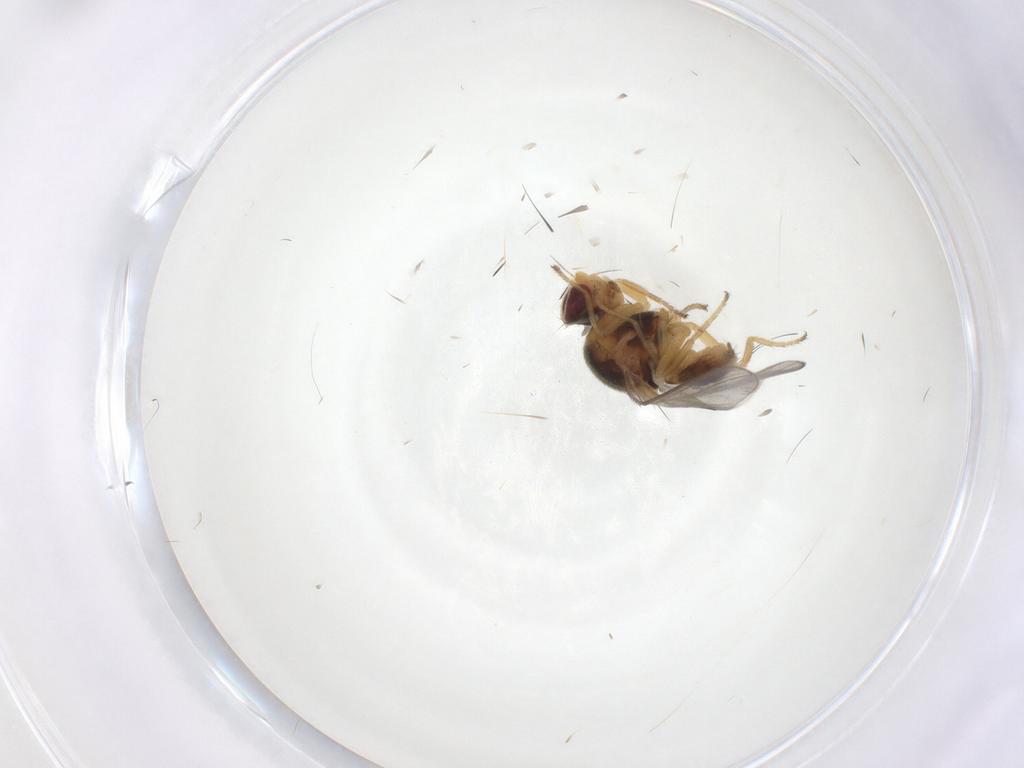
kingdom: Animalia
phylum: Arthropoda
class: Insecta
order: Diptera
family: Chloropidae
